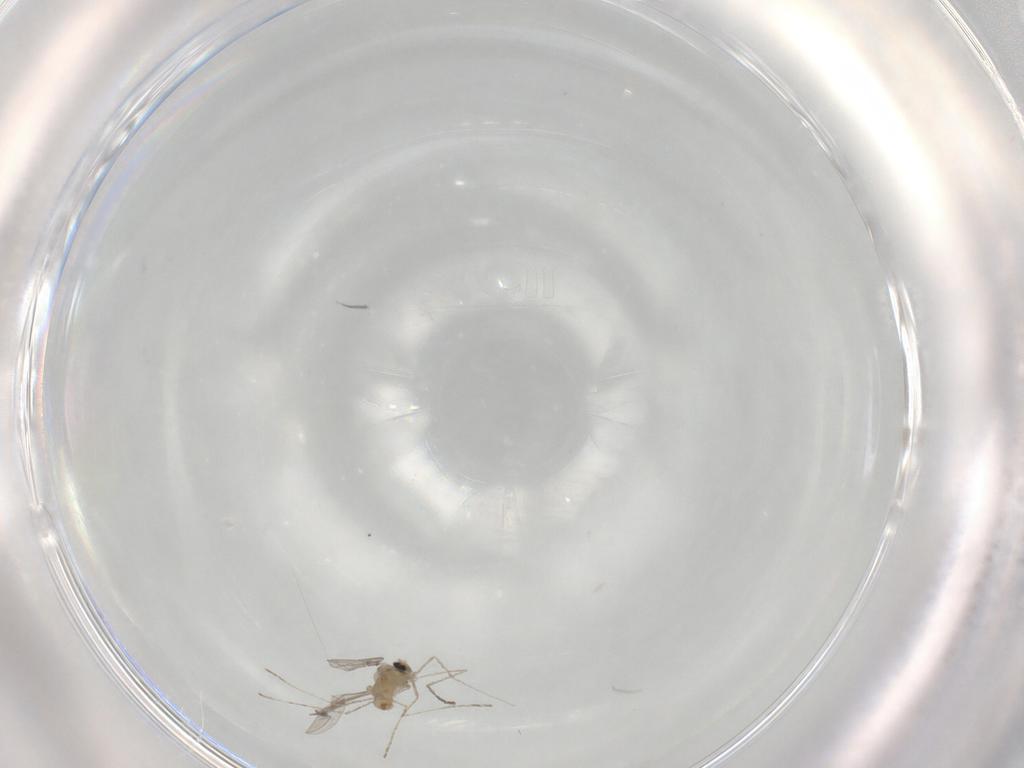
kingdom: Animalia
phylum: Arthropoda
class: Insecta
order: Diptera
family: Cecidomyiidae
